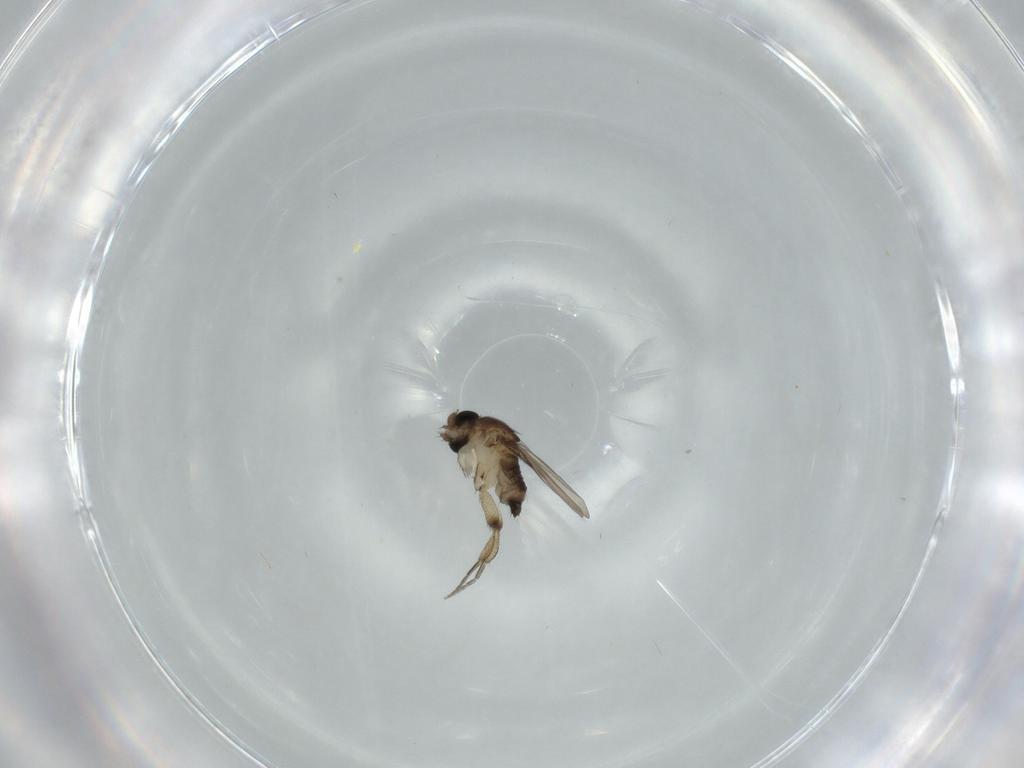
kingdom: Animalia
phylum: Arthropoda
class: Insecta
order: Diptera
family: Phoridae
